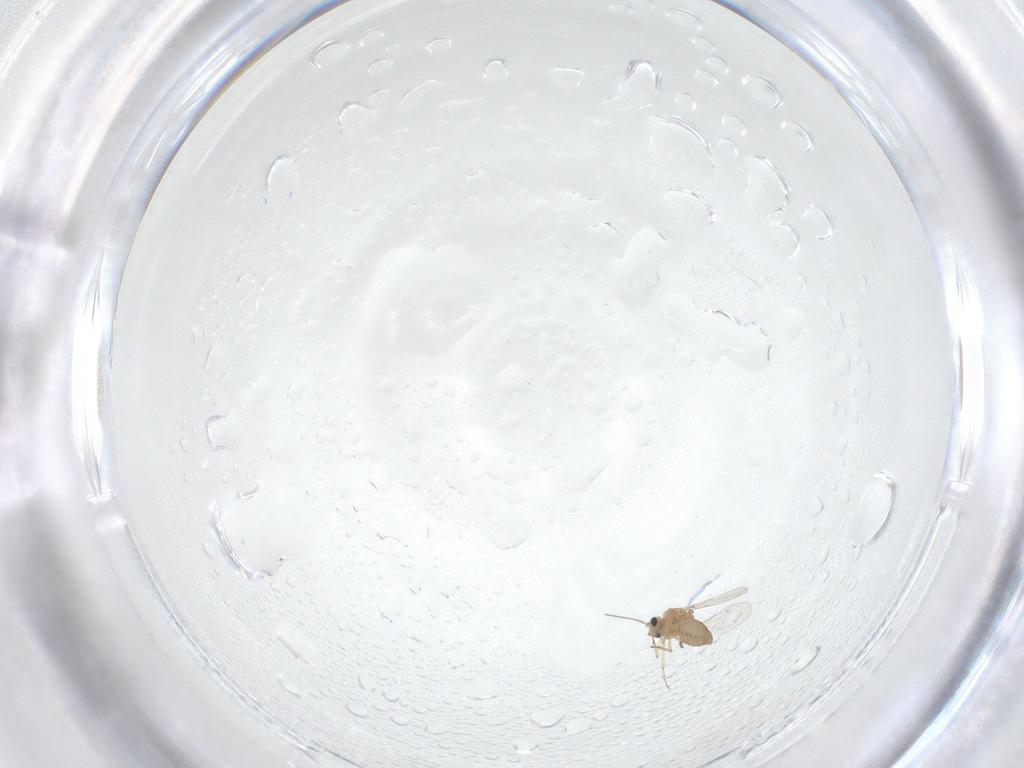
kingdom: Animalia
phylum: Arthropoda
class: Insecta
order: Diptera
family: Ceratopogonidae
